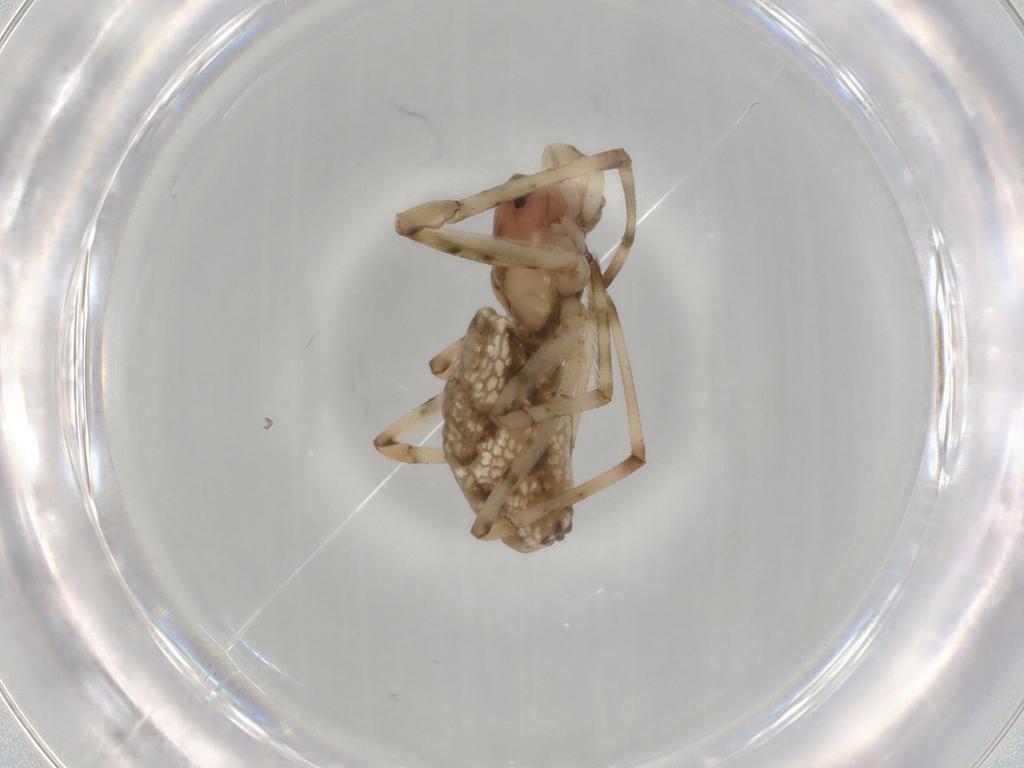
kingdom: Animalia
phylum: Arthropoda
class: Arachnida
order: Araneae
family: Tetragnathidae
